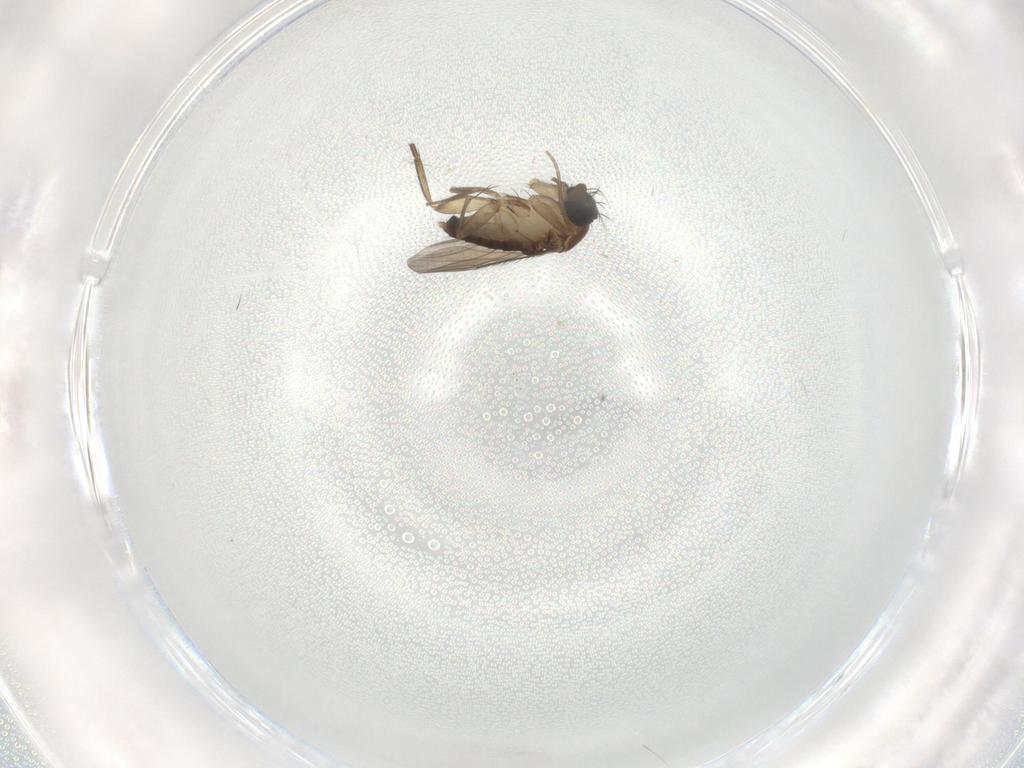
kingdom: Animalia
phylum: Arthropoda
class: Insecta
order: Diptera
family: Phoridae
